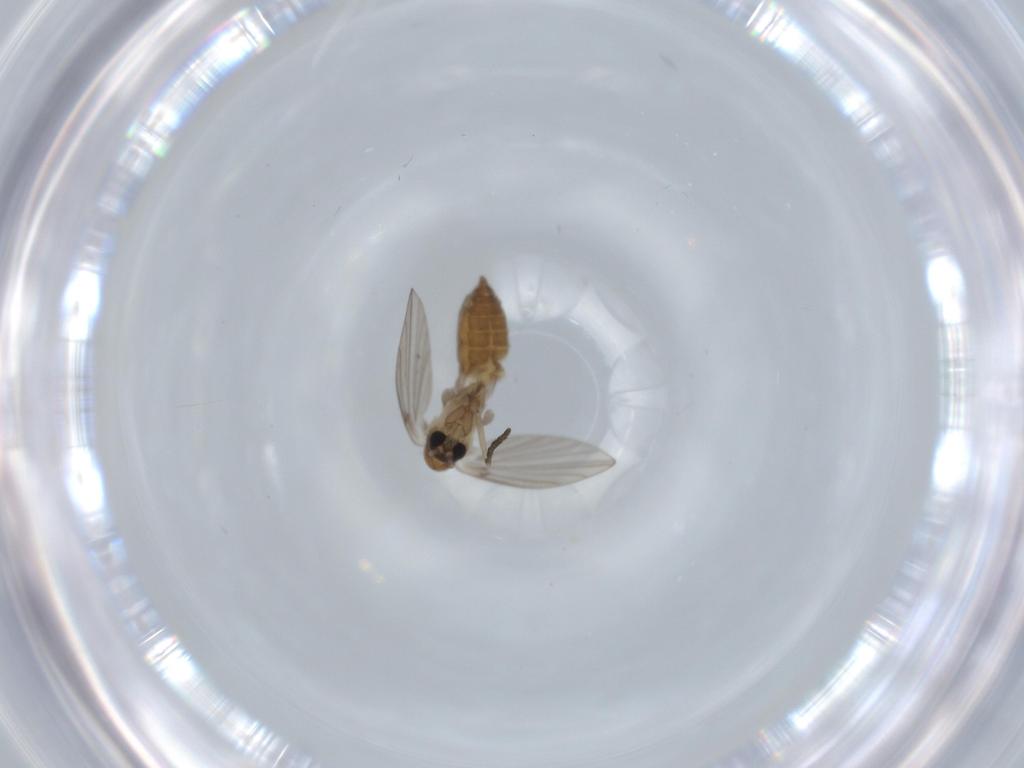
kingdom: Animalia
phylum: Arthropoda
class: Insecta
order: Diptera
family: Psychodidae
